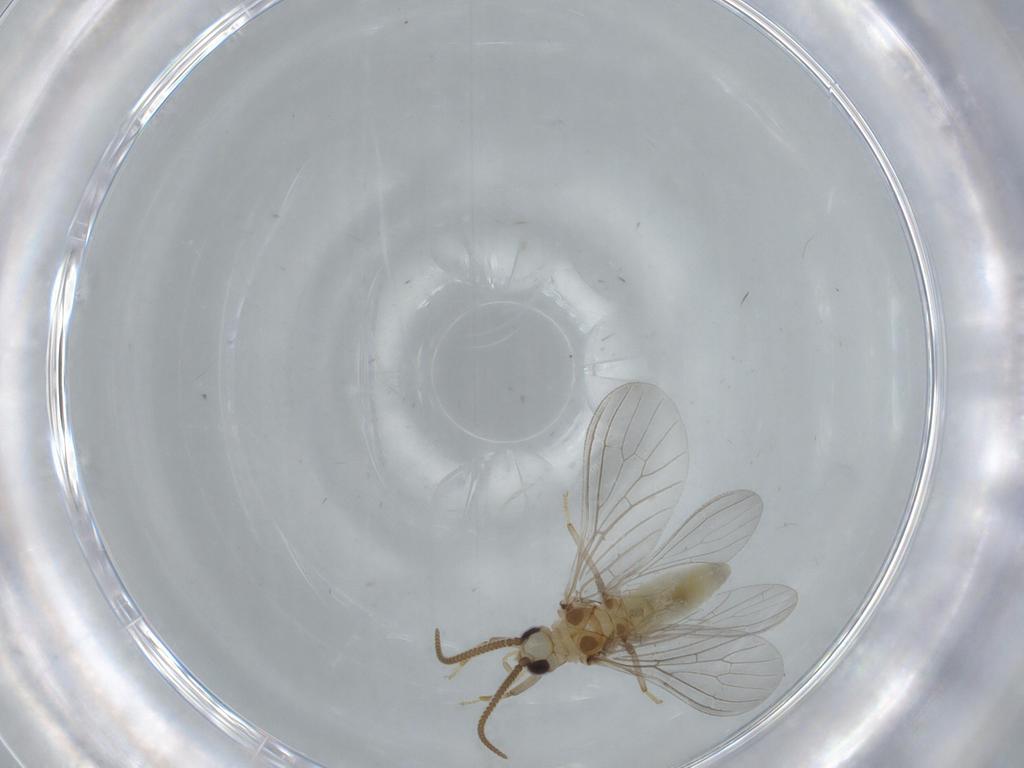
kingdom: Animalia
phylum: Arthropoda
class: Insecta
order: Neuroptera
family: Coniopterygidae
